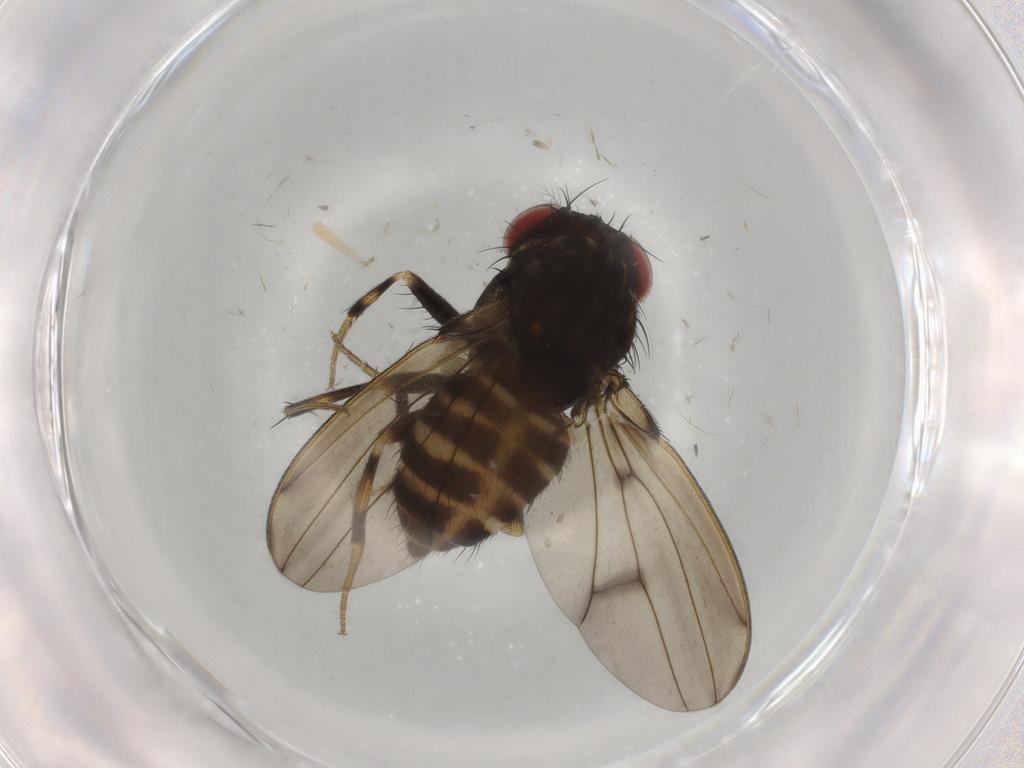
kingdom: Animalia
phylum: Arthropoda
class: Insecta
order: Diptera
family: Drosophilidae
